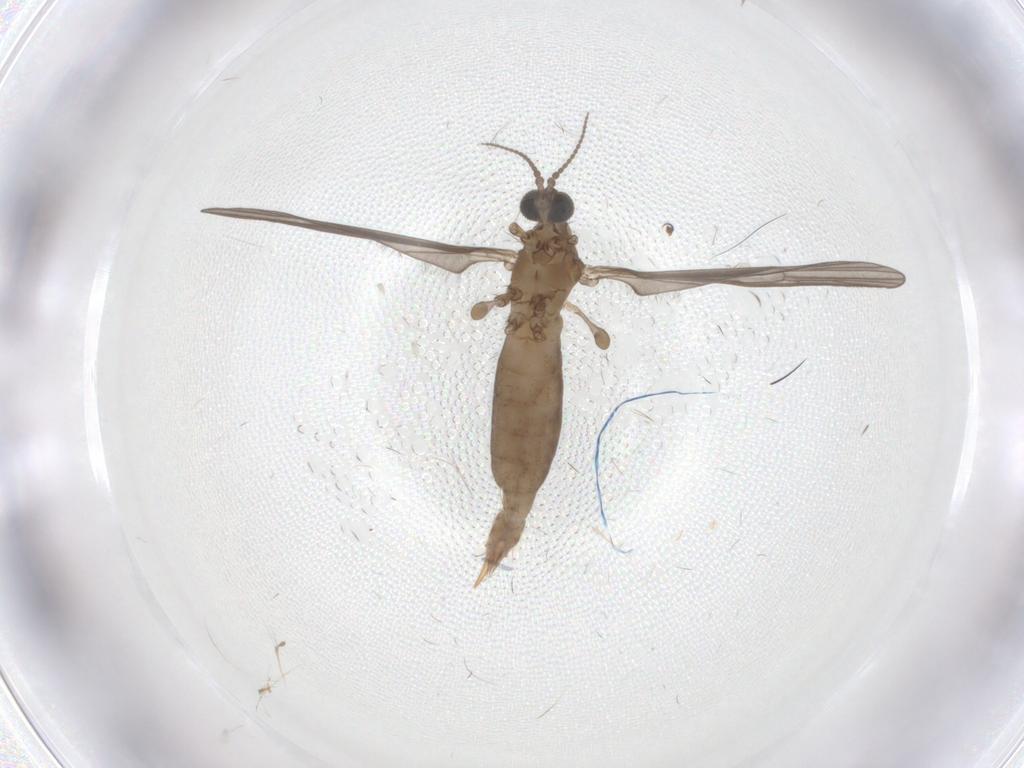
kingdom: Animalia
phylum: Arthropoda
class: Insecta
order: Diptera
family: Limoniidae
